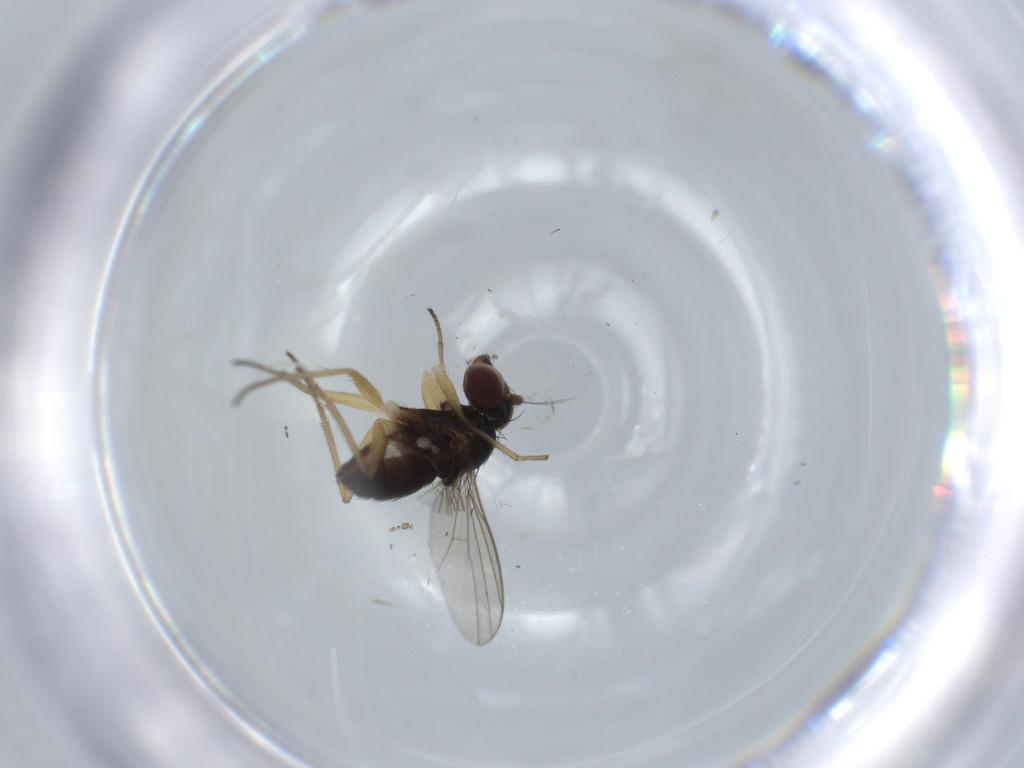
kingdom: Animalia
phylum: Arthropoda
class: Insecta
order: Diptera
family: Dolichopodidae
